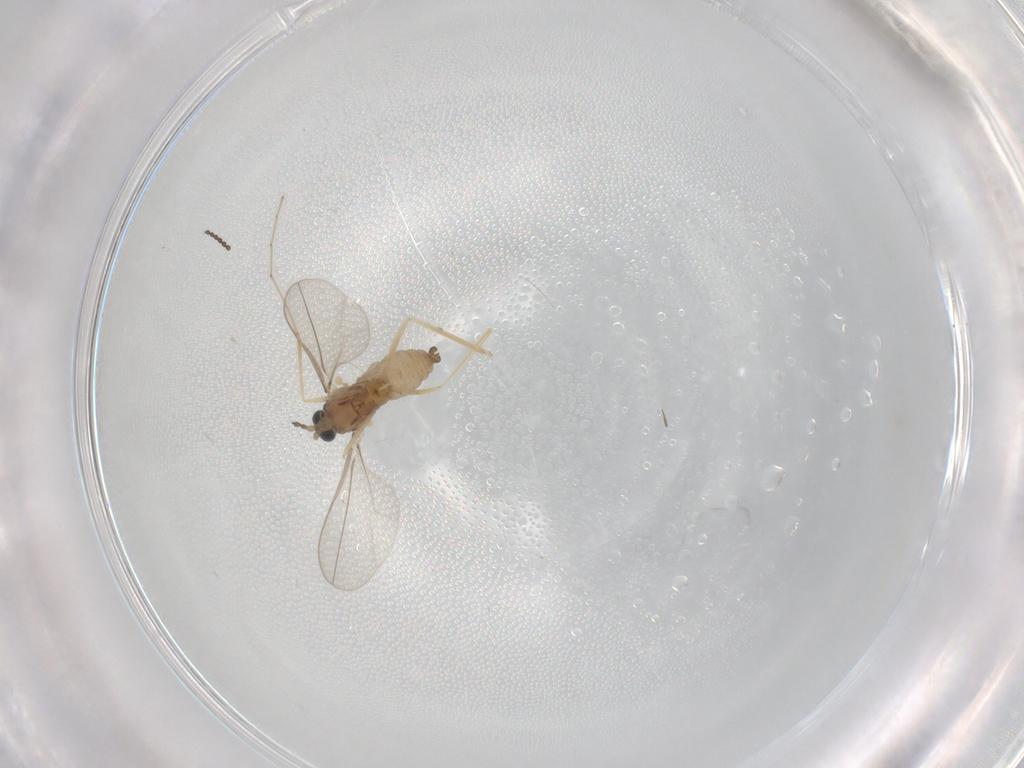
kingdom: Animalia
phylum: Arthropoda
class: Insecta
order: Diptera
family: Cecidomyiidae
